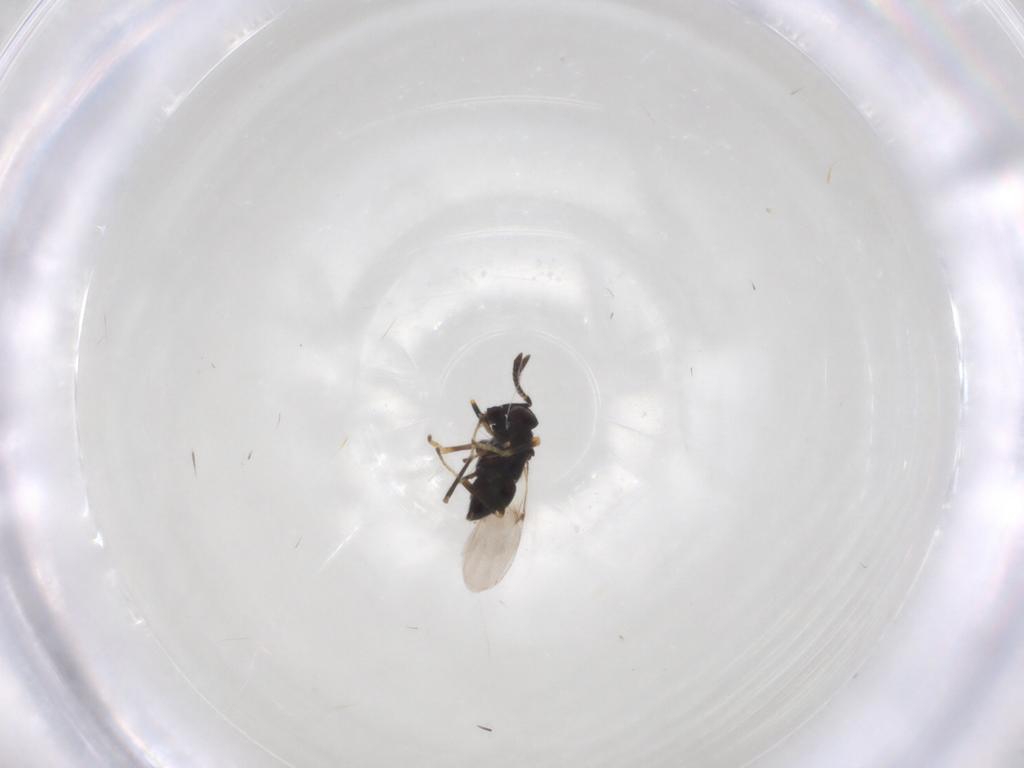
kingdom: Animalia
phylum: Arthropoda
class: Insecta
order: Hymenoptera
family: Encyrtidae
